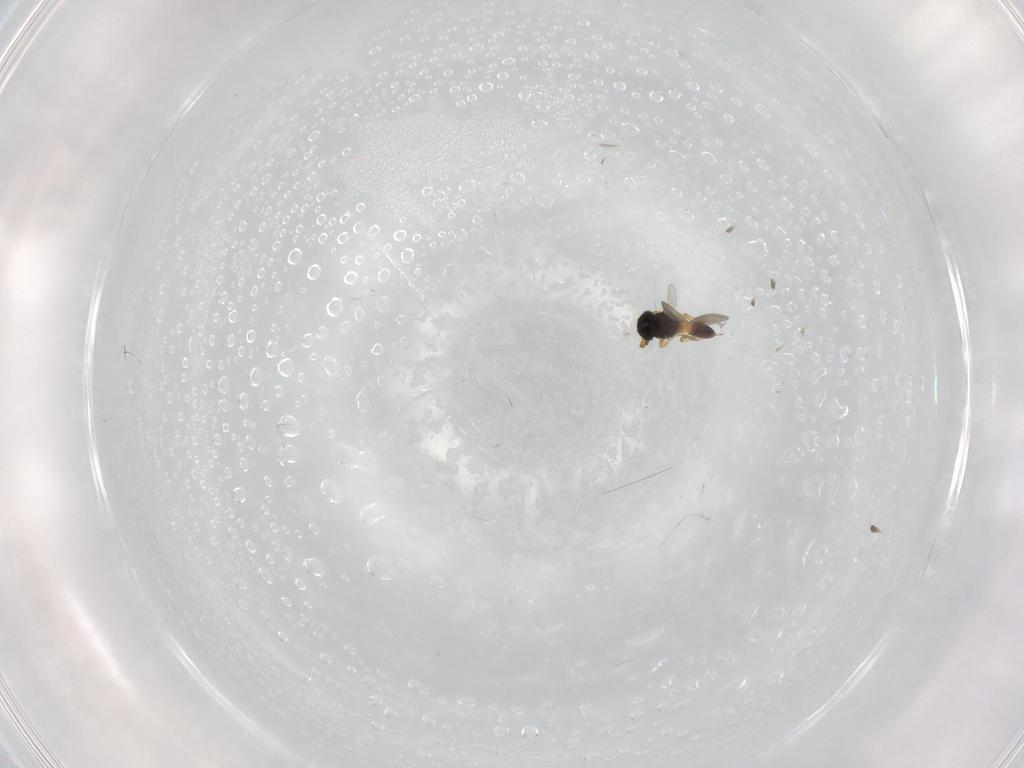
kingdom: Animalia
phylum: Arthropoda
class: Insecta
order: Hymenoptera
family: Platygastridae
